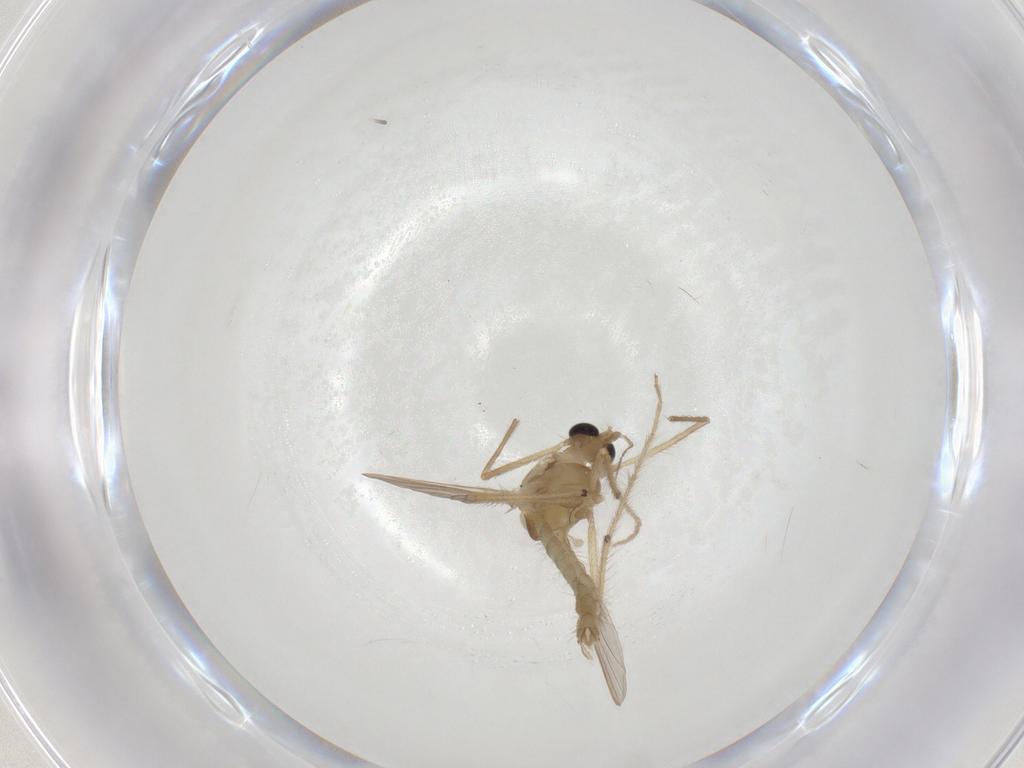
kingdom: Animalia
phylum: Arthropoda
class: Insecta
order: Diptera
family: Chironomidae
